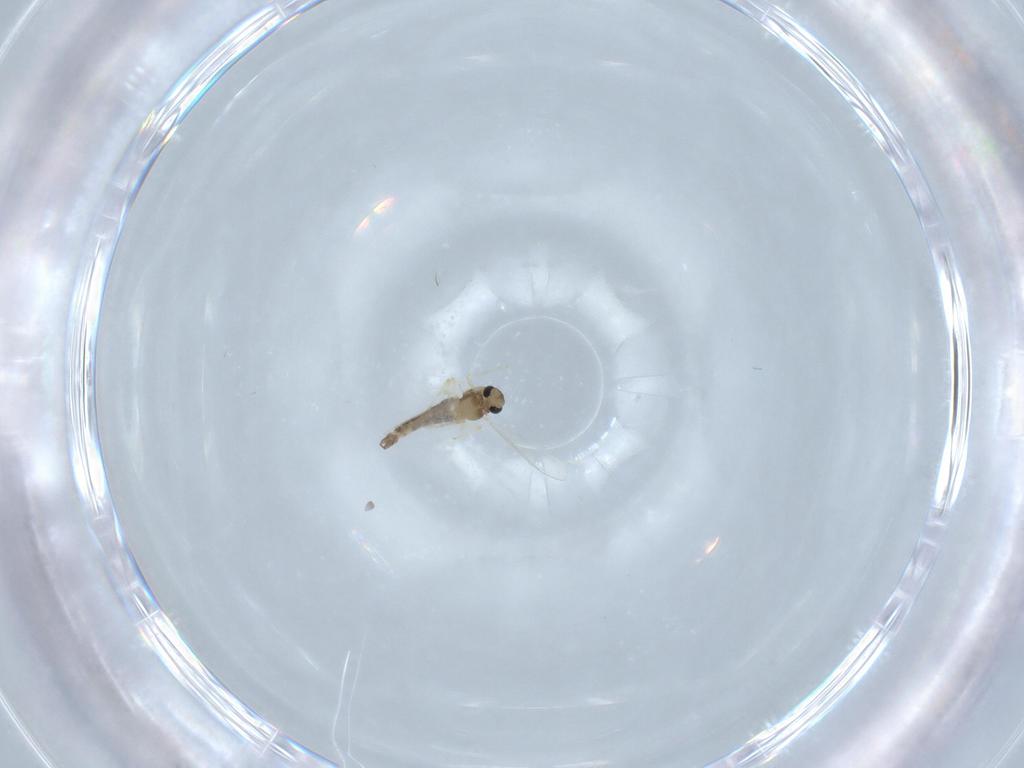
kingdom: Animalia
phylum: Arthropoda
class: Insecta
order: Diptera
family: Chironomidae
